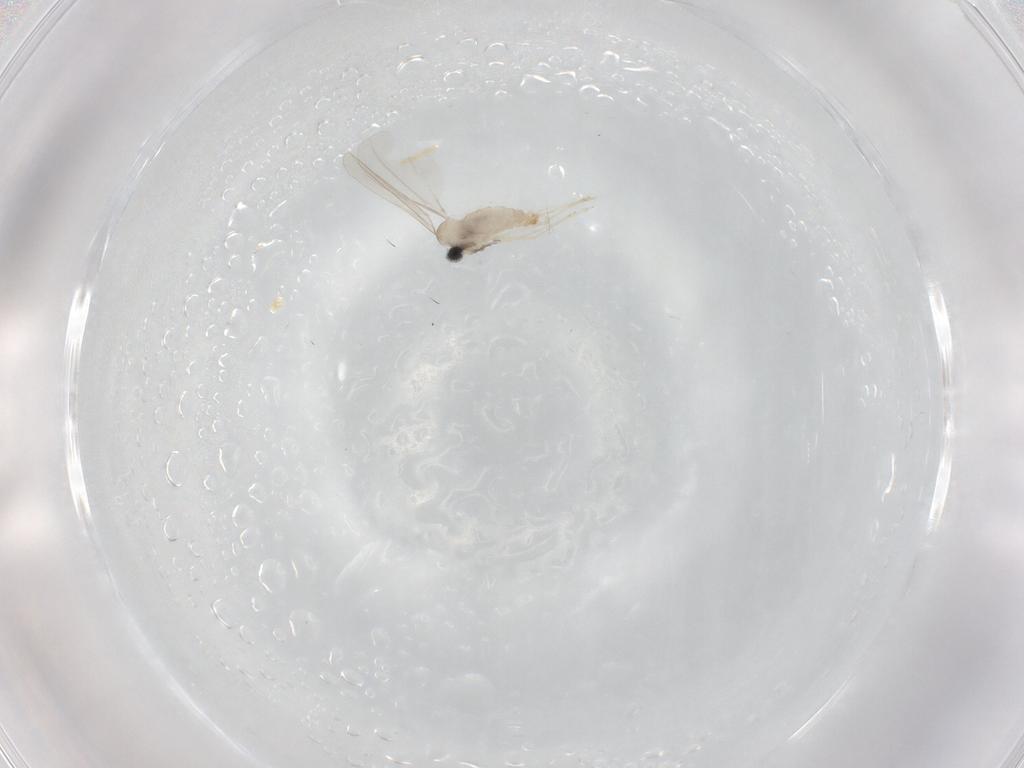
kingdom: Animalia
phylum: Arthropoda
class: Insecta
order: Diptera
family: Cecidomyiidae
